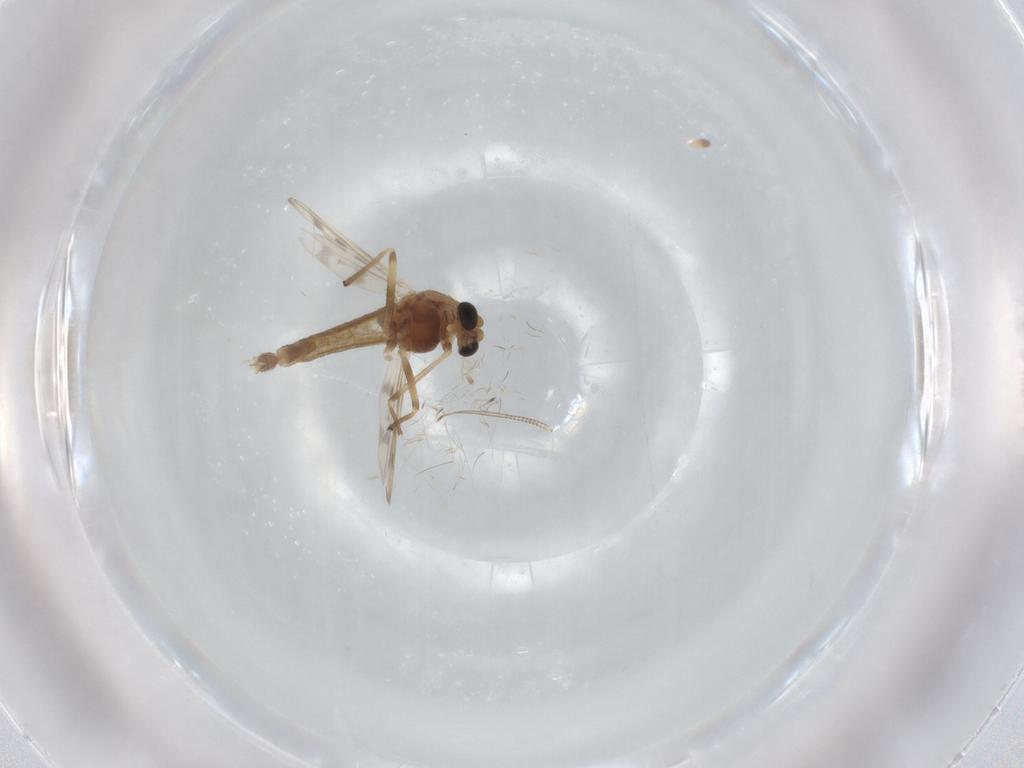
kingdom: Animalia
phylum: Arthropoda
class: Insecta
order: Diptera
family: Chironomidae
